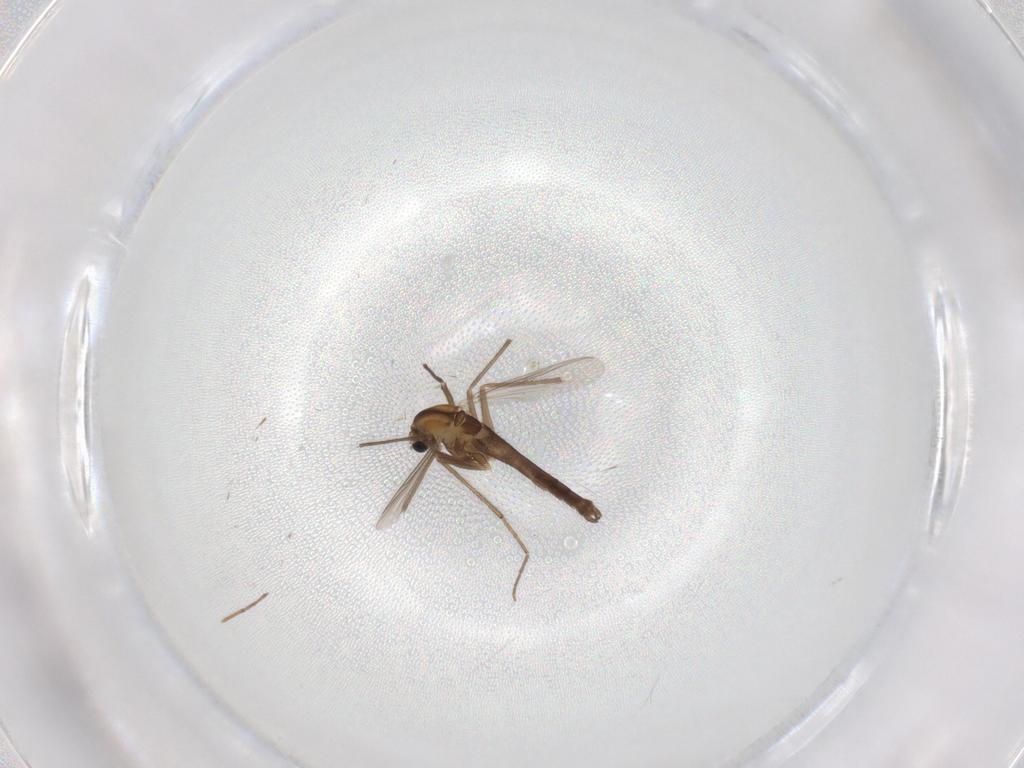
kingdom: Animalia
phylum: Arthropoda
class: Insecta
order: Diptera
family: Chironomidae
